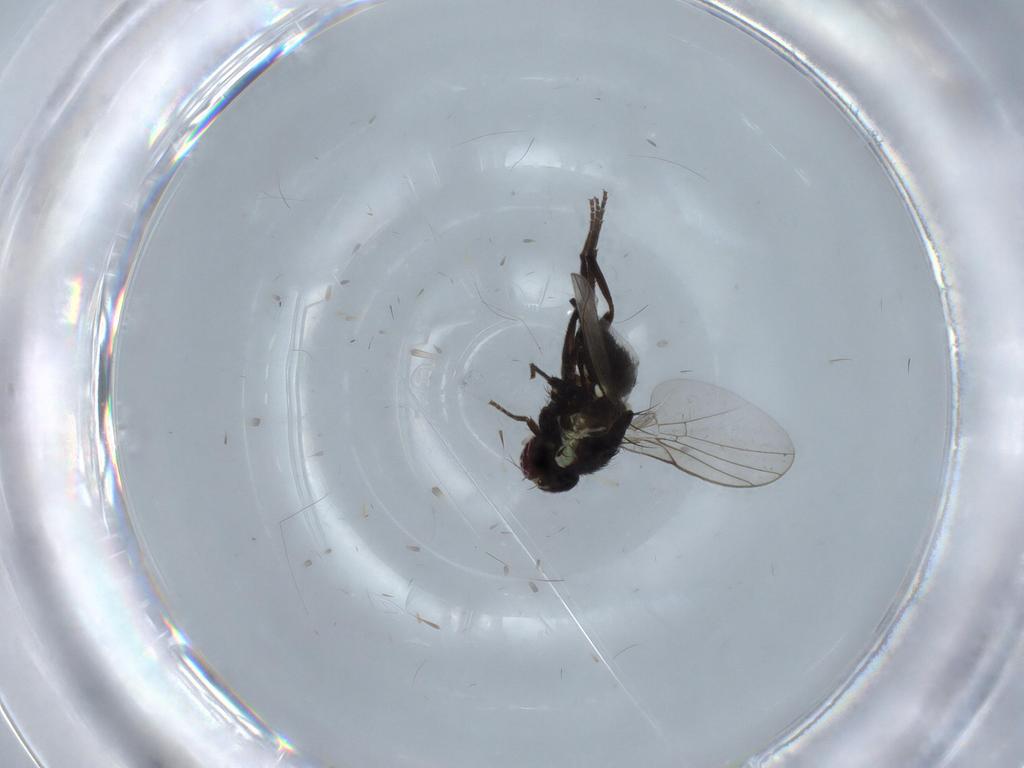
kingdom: Animalia
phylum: Arthropoda
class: Insecta
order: Diptera
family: Agromyzidae
